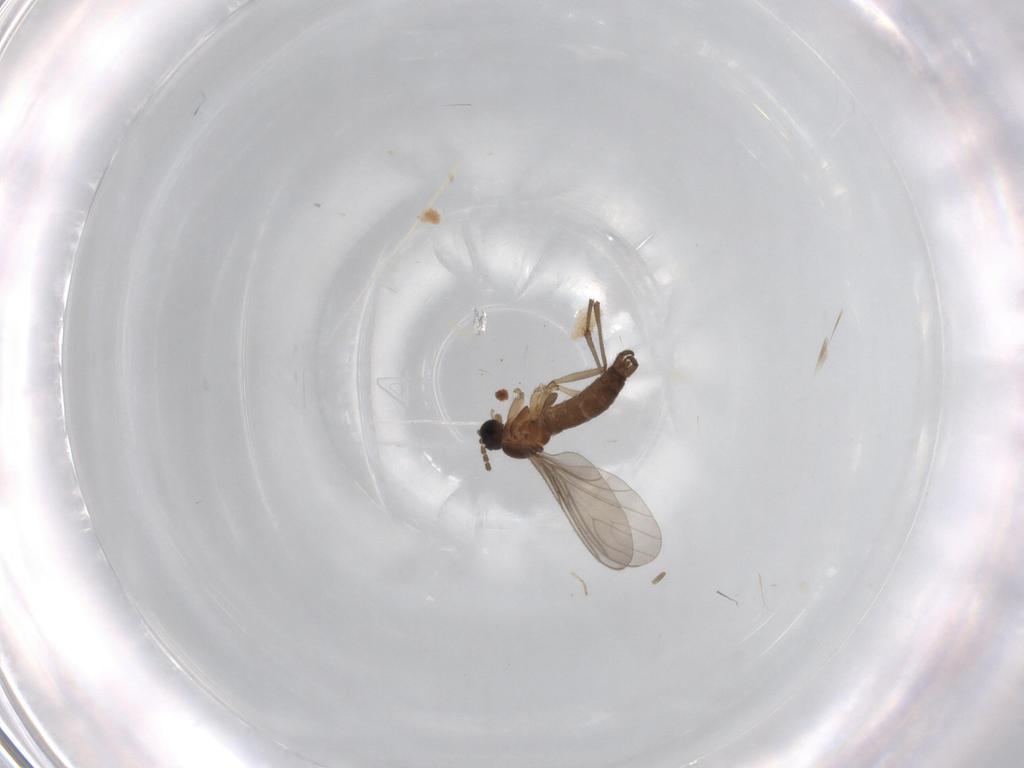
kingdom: Animalia
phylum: Arthropoda
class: Insecta
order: Diptera
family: Sciaridae
